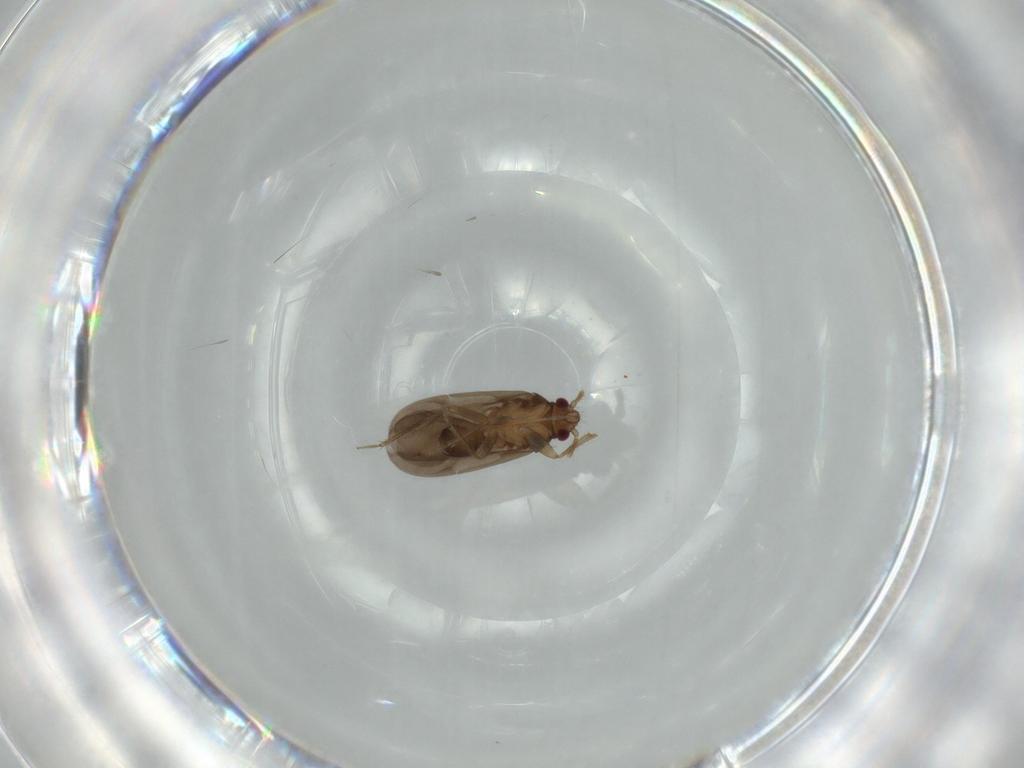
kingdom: Animalia
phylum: Arthropoda
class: Insecta
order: Hemiptera
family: Ceratocombidae
